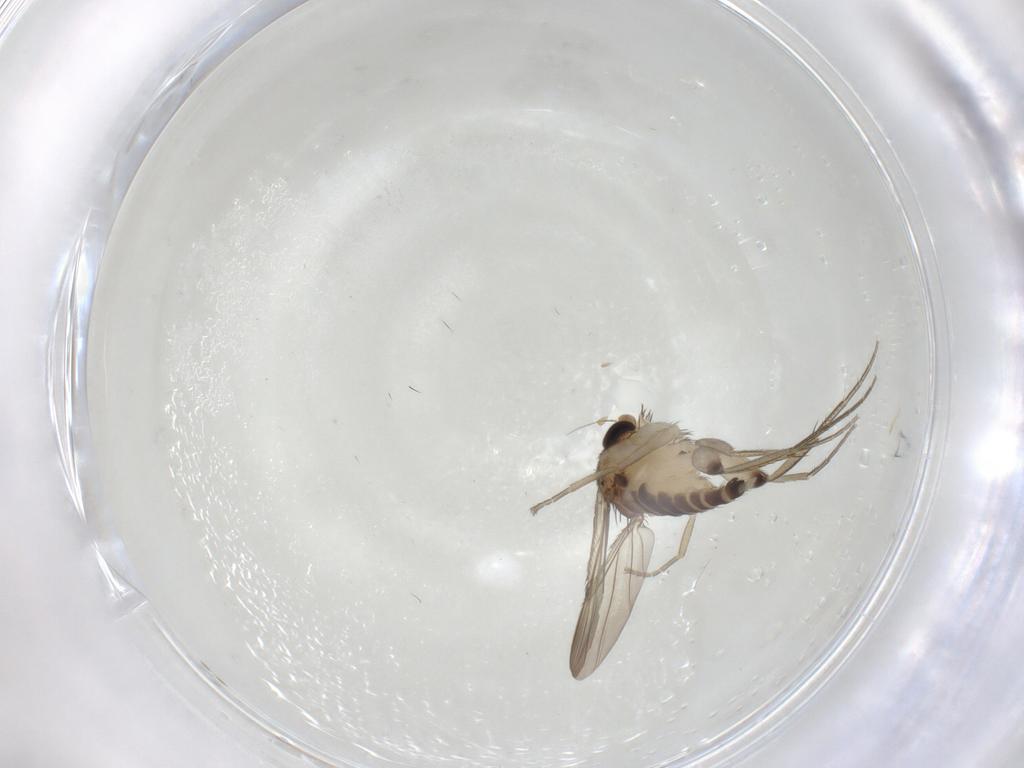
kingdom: Animalia
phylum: Arthropoda
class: Insecta
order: Diptera
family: Phoridae
